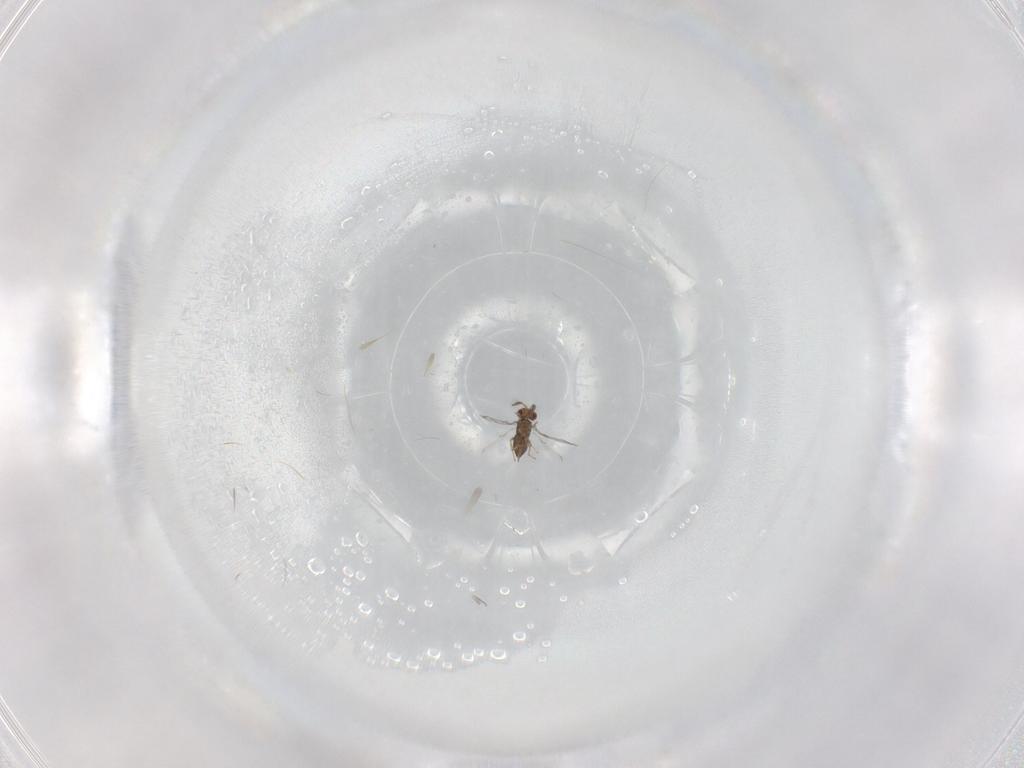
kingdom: Animalia
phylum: Arthropoda
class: Insecta
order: Hymenoptera
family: Trichogrammatidae
